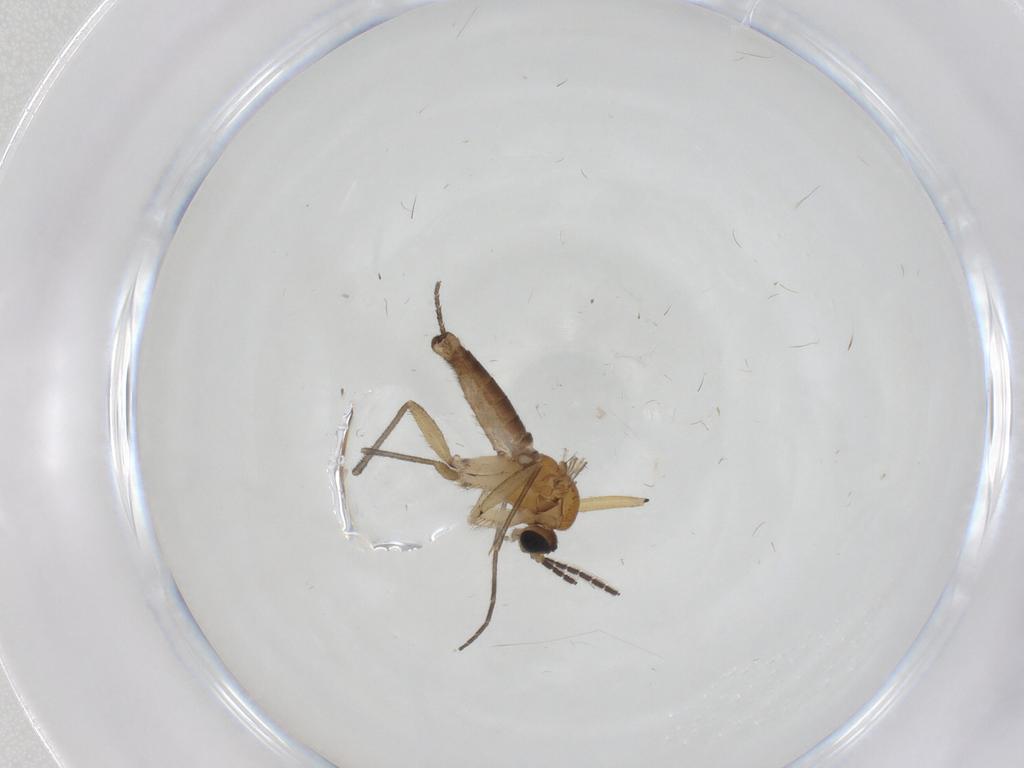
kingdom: Animalia
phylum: Arthropoda
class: Insecta
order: Diptera
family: Sciaridae
